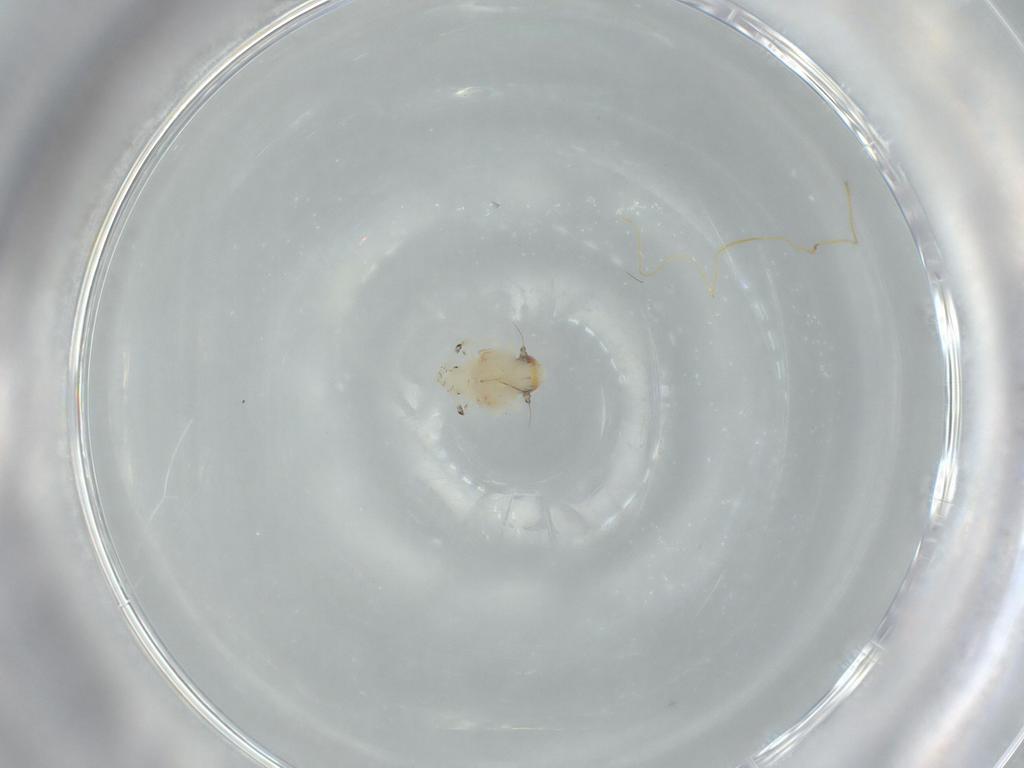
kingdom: Animalia
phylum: Arthropoda
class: Insecta
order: Hemiptera
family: Nogodinidae
